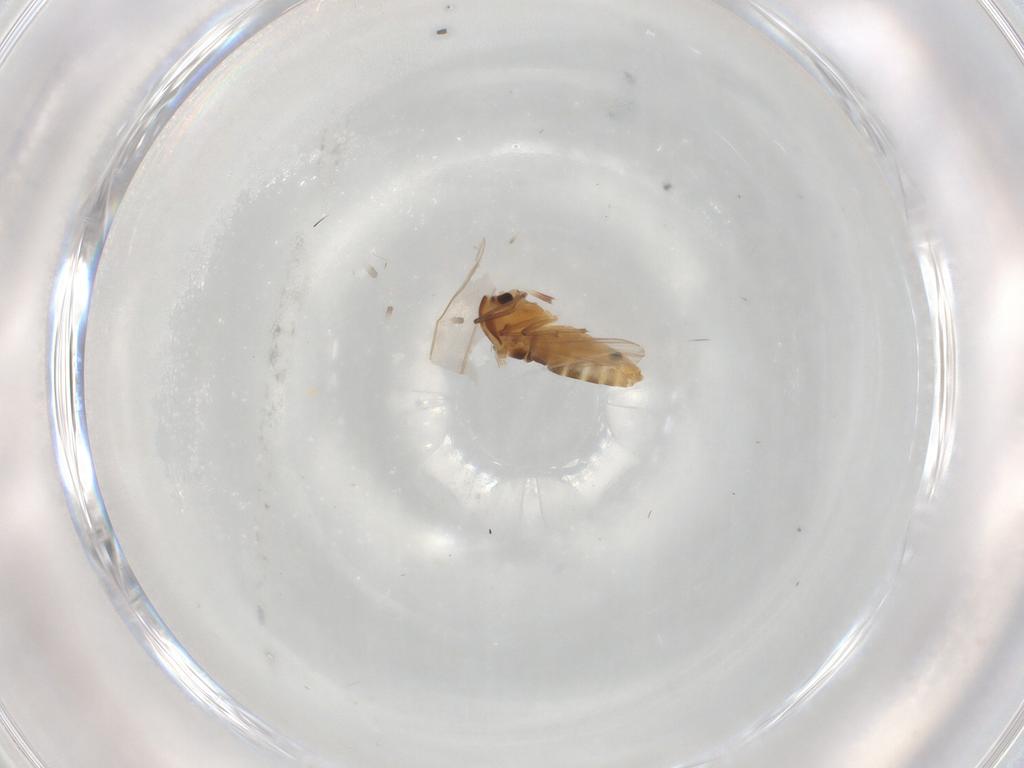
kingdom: Animalia
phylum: Arthropoda
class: Insecta
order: Diptera
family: Chironomidae
